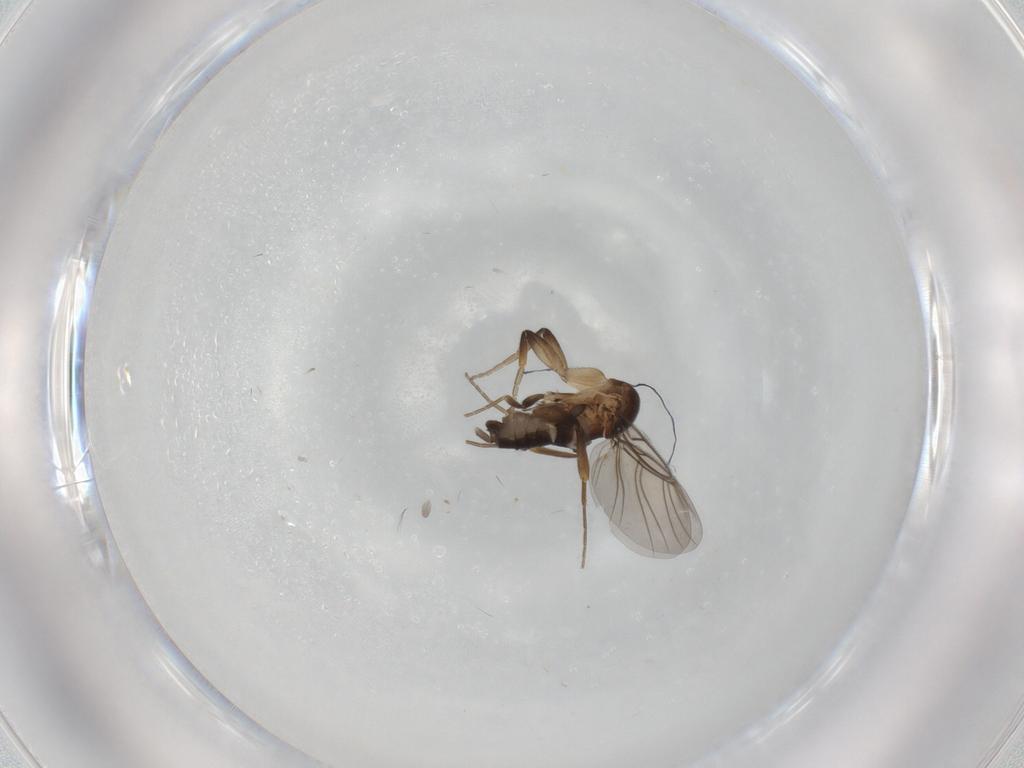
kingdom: Animalia
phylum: Arthropoda
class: Insecta
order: Diptera
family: Phoridae
